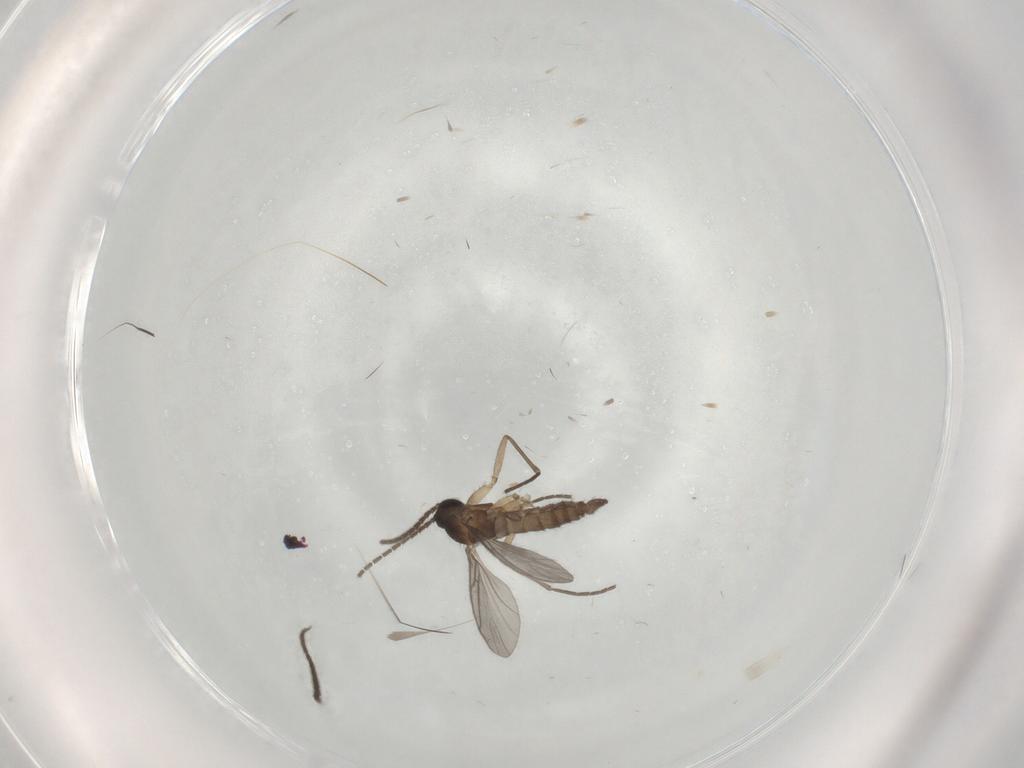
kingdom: Animalia
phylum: Arthropoda
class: Insecta
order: Diptera
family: Sciaridae
